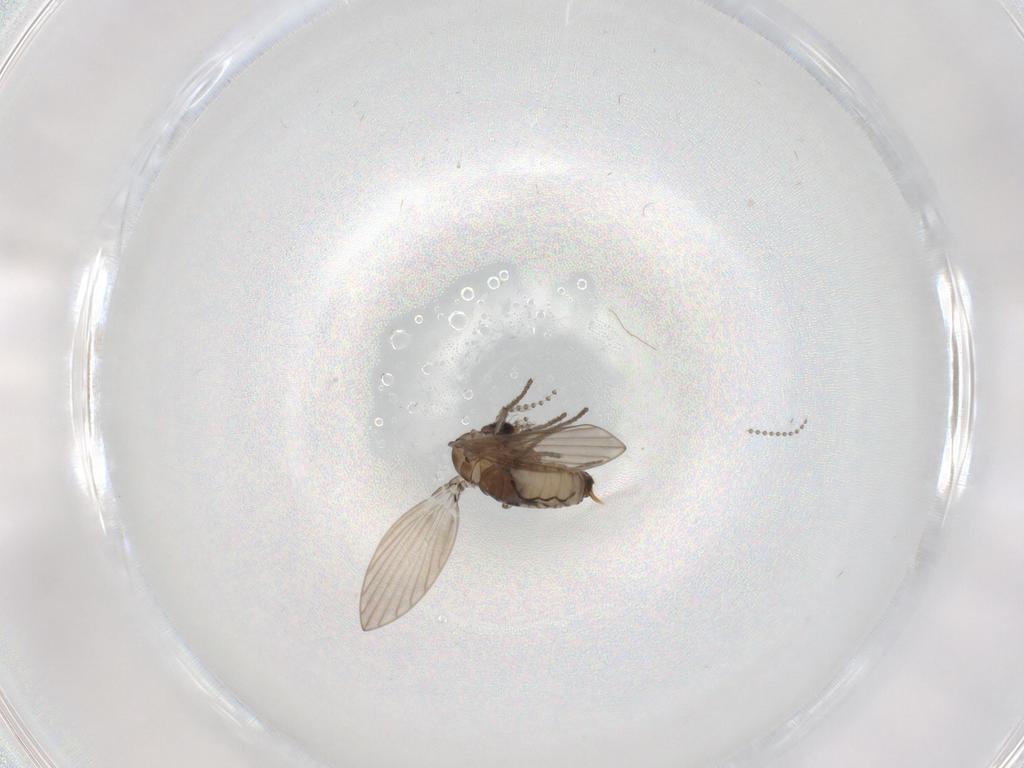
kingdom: Animalia
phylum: Arthropoda
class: Insecta
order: Diptera
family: Psychodidae
